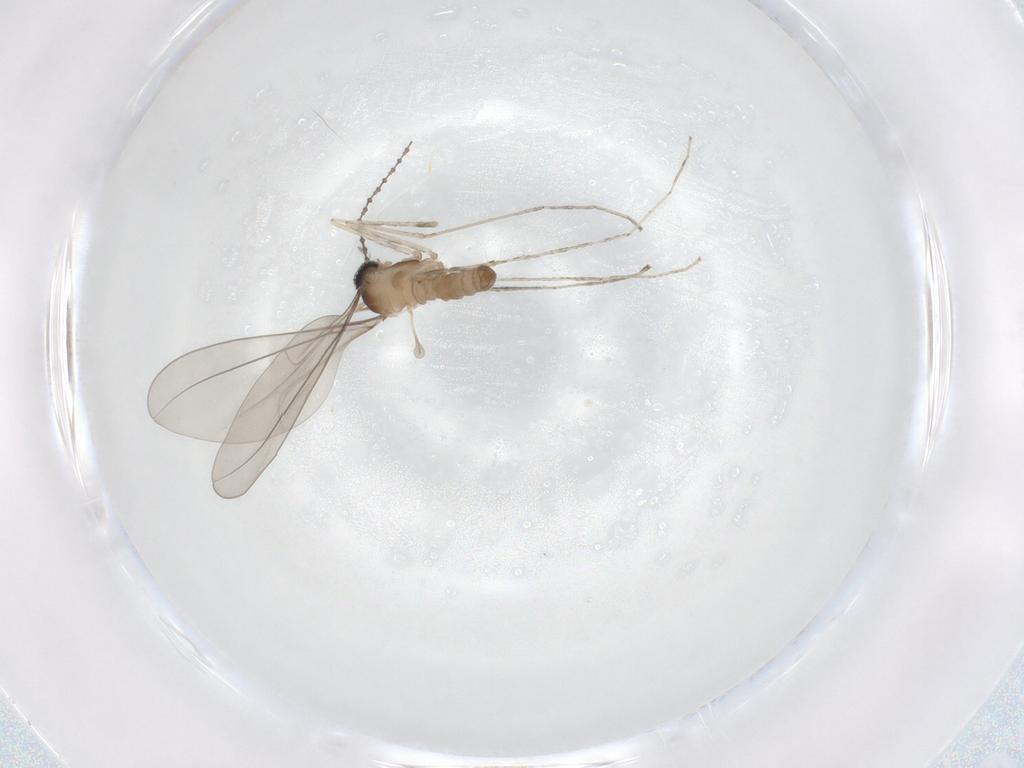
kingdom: Animalia
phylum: Arthropoda
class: Insecta
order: Diptera
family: Cecidomyiidae
